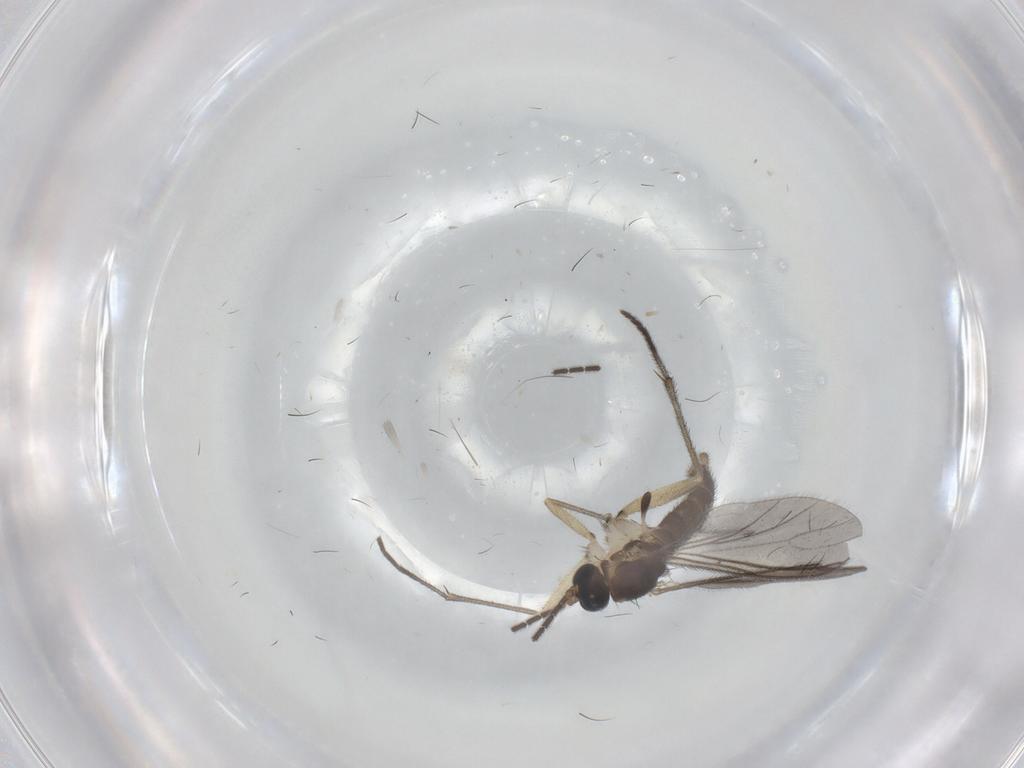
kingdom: Animalia
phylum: Arthropoda
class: Insecta
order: Diptera
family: Sciaridae
